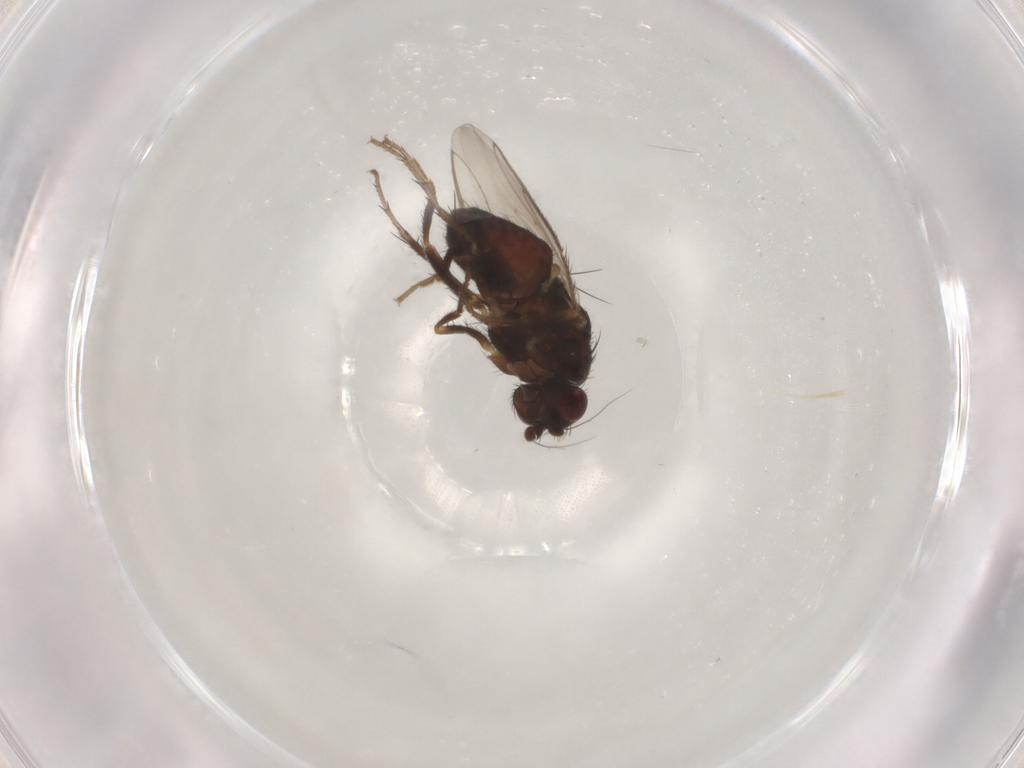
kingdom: Animalia
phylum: Arthropoda
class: Insecta
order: Diptera
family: Sphaeroceridae
